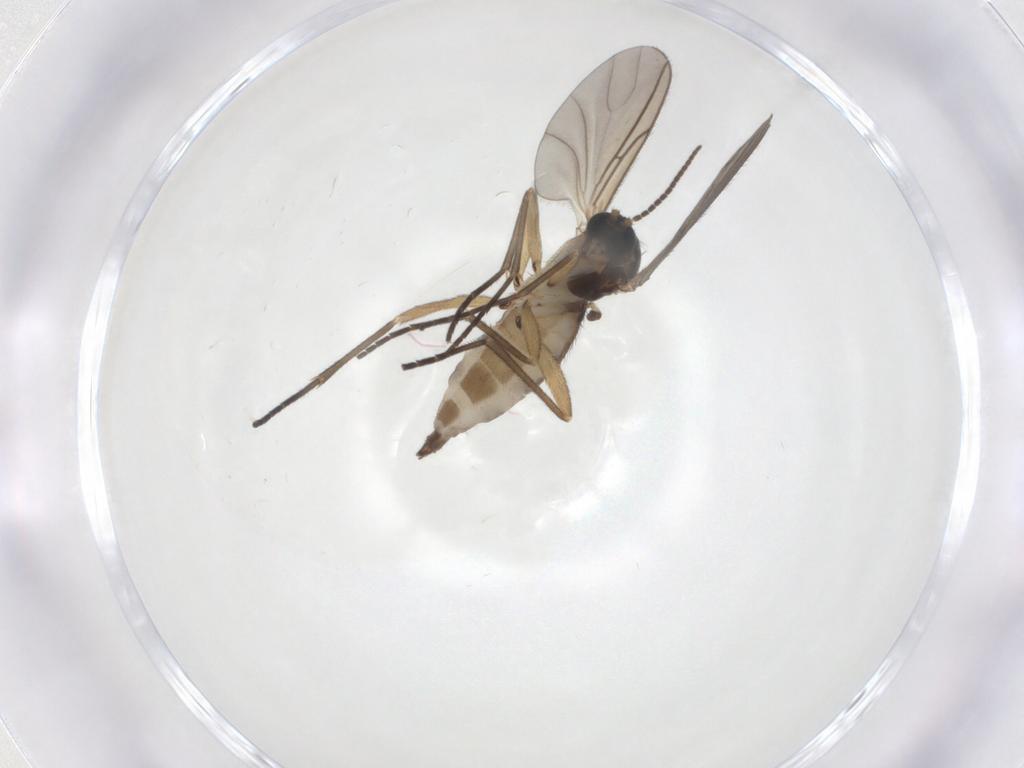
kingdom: Animalia
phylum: Arthropoda
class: Insecta
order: Diptera
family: Sciaridae
